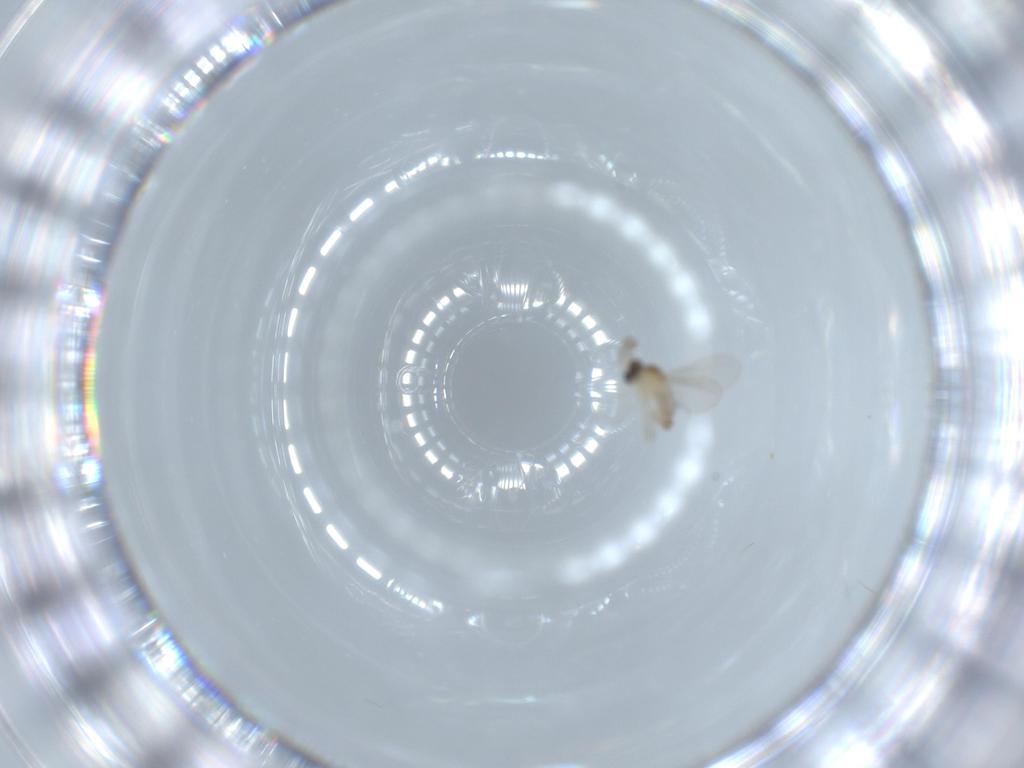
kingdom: Animalia
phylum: Arthropoda
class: Insecta
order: Diptera
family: Cecidomyiidae
